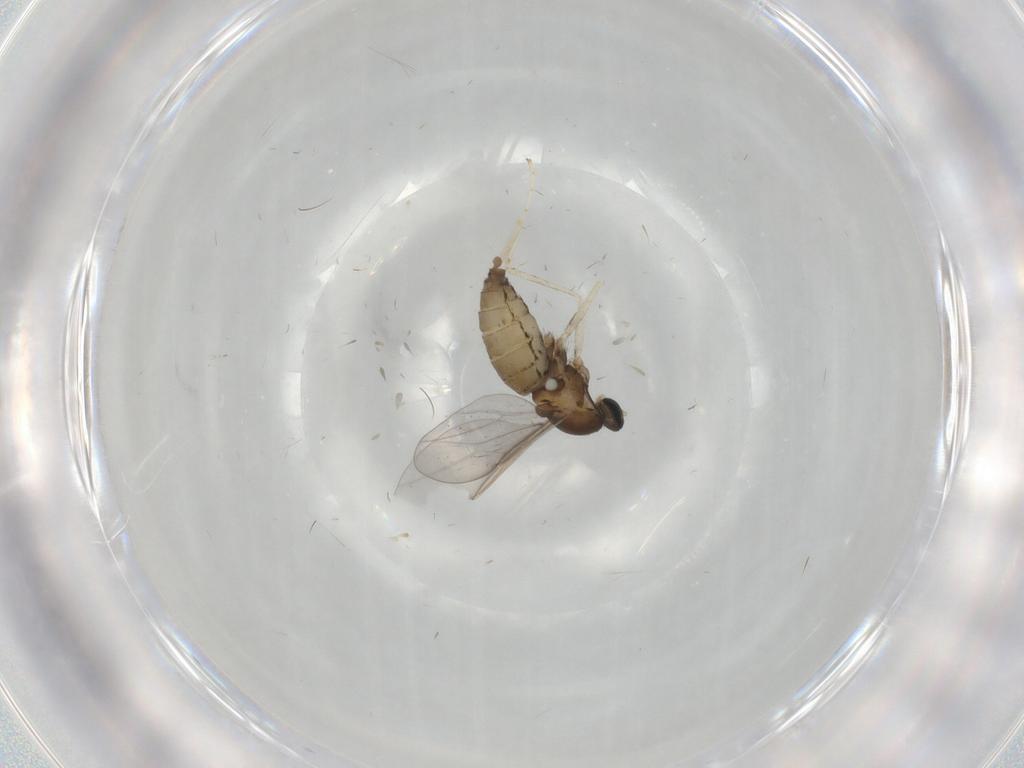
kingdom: Animalia
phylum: Arthropoda
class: Insecta
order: Diptera
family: Cecidomyiidae
